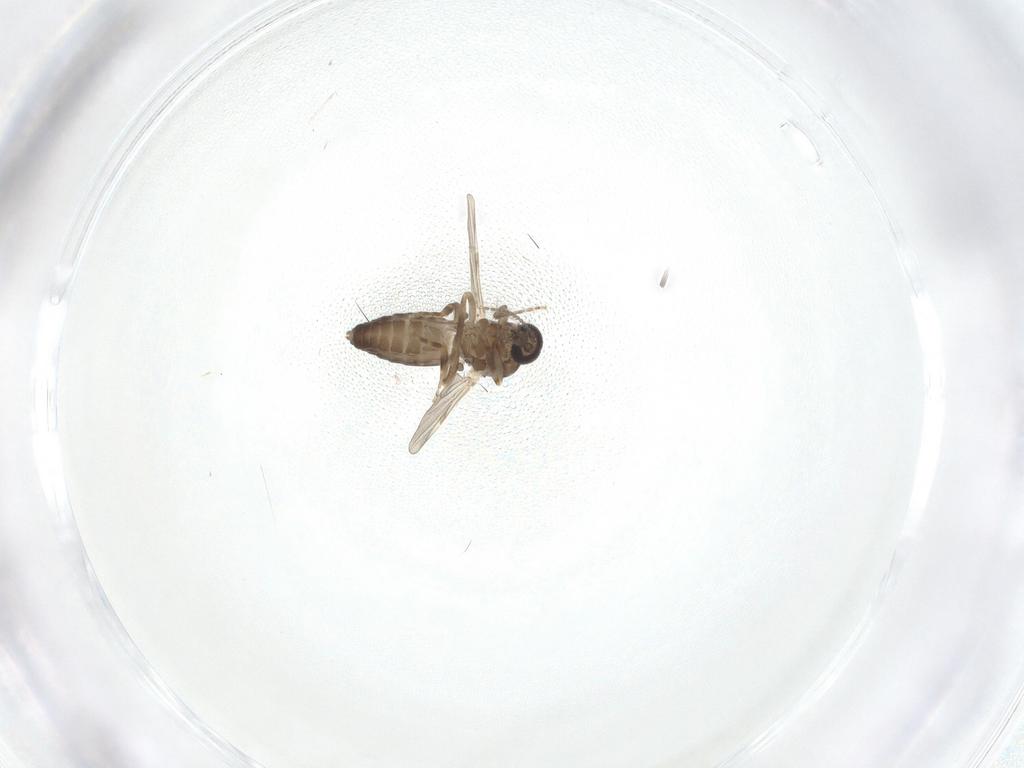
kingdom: Animalia
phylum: Arthropoda
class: Insecta
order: Diptera
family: Ceratopogonidae
